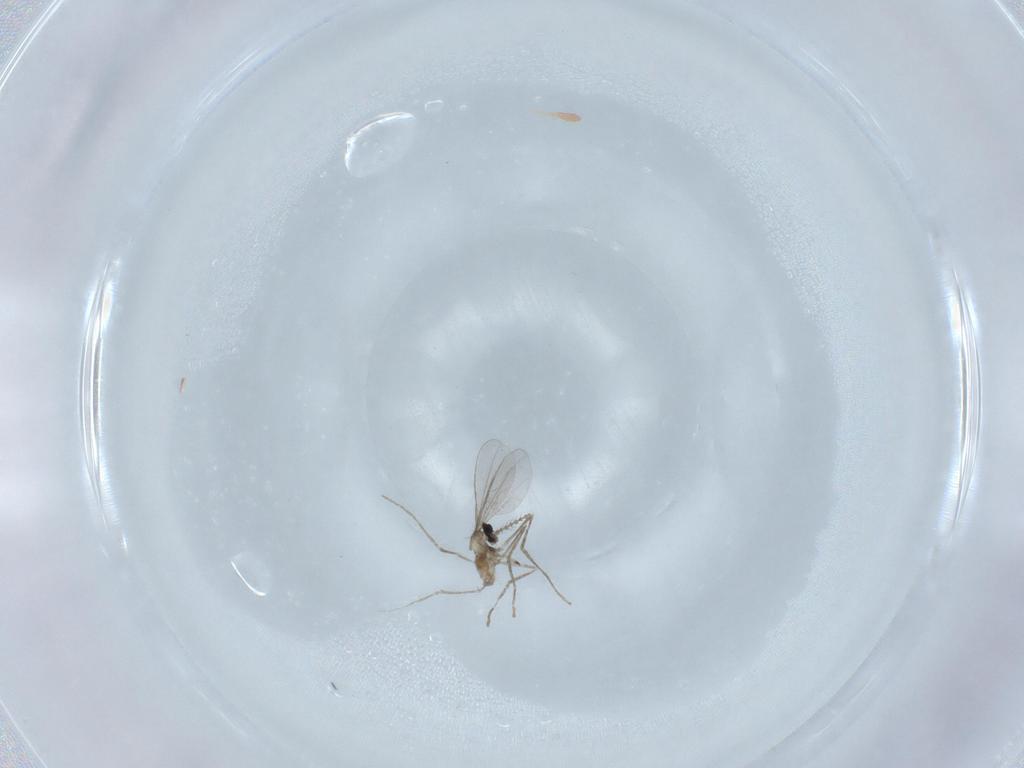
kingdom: Animalia
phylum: Arthropoda
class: Insecta
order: Diptera
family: Cecidomyiidae
